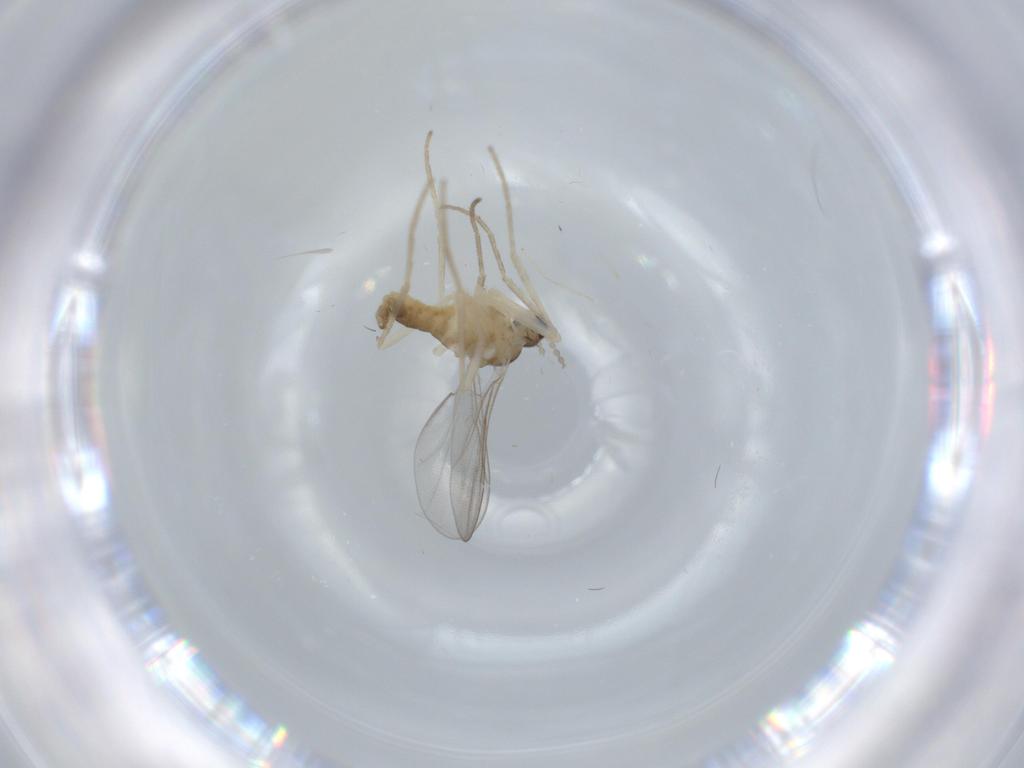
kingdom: Animalia
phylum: Arthropoda
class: Insecta
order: Diptera
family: Cecidomyiidae
